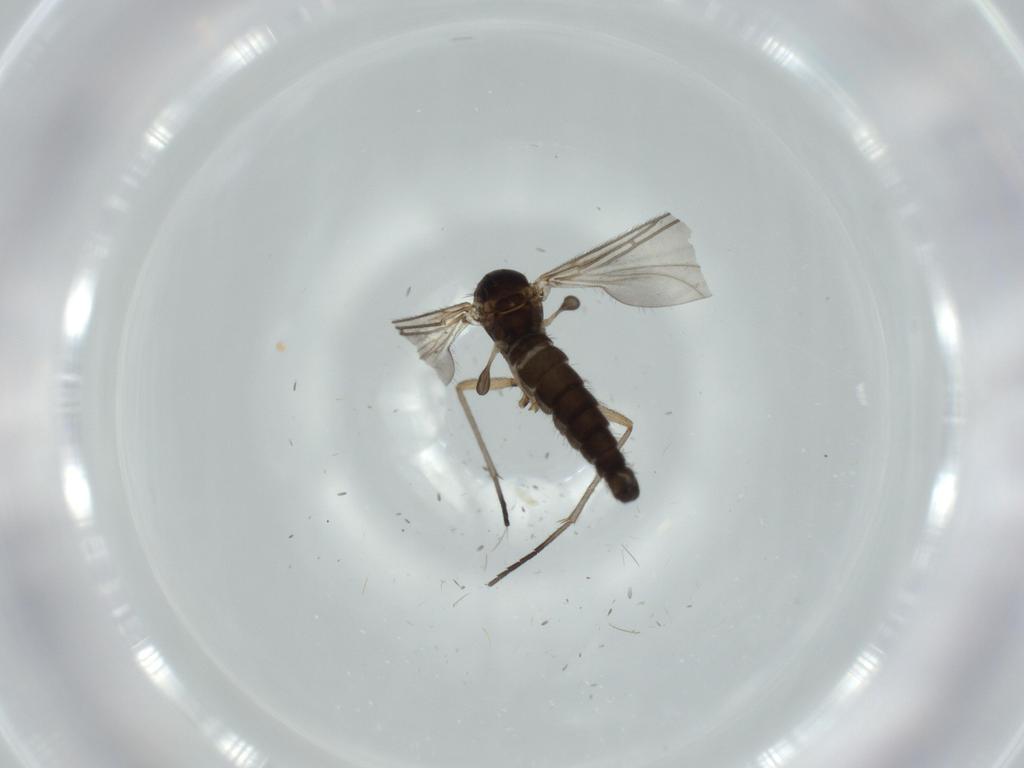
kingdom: Animalia
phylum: Arthropoda
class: Insecta
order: Diptera
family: Sciaridae
